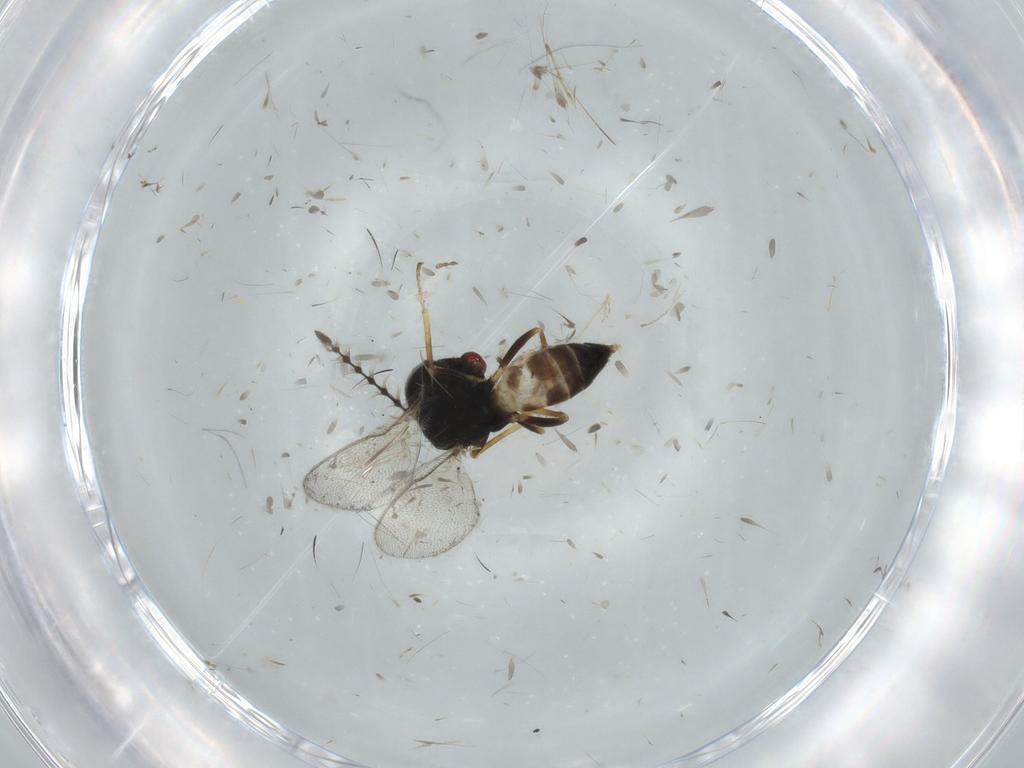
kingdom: Animalia
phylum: Arthropoda
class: Insecta
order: Hymenoptera
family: Pteromalidae
